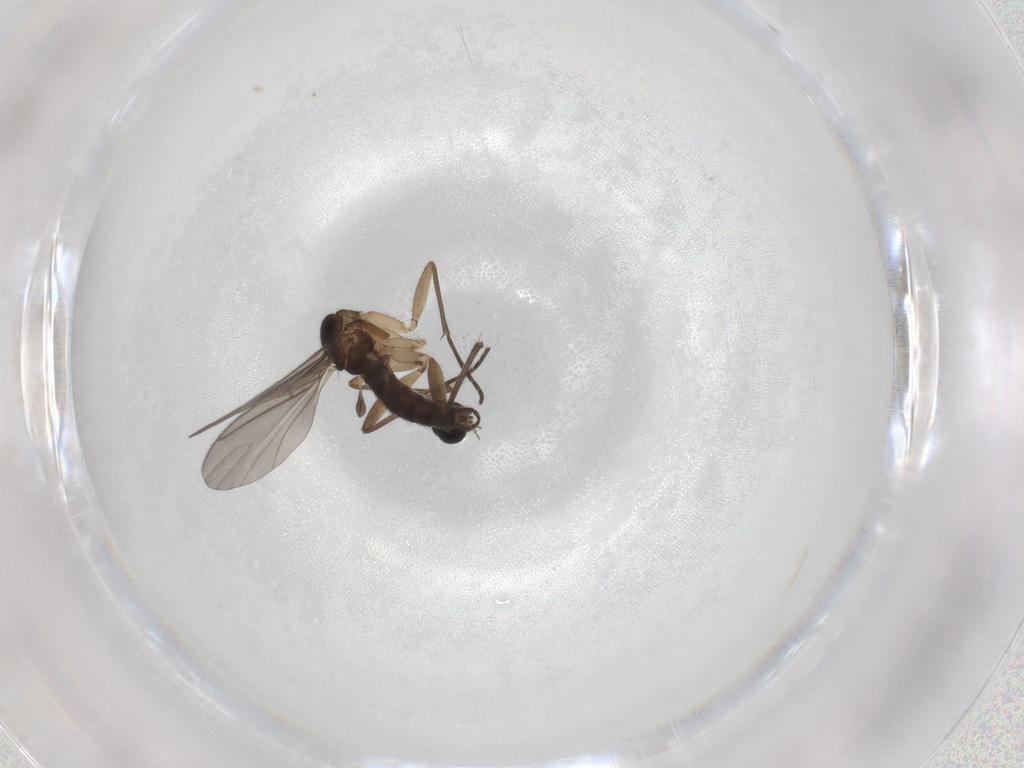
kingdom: Animalia
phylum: Arthropoda
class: Insecta
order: Diptera
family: Sciaridae
